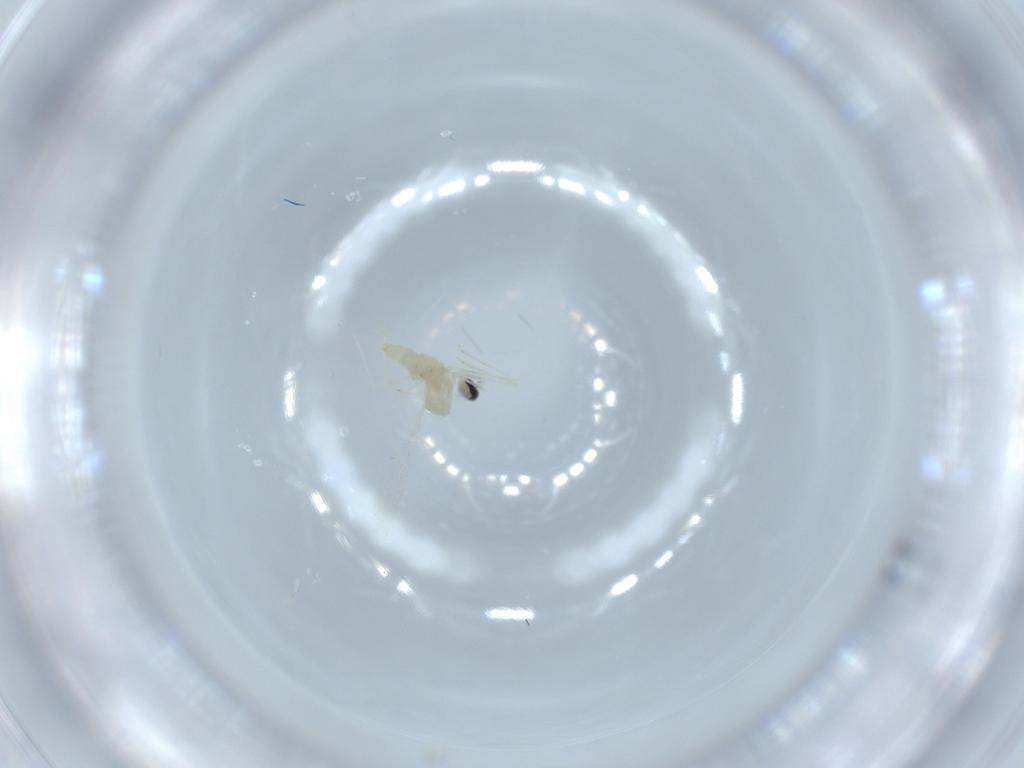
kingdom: Animalia
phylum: Arthropoda
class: Insecta
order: Diptera
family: Cecidomyiidae
